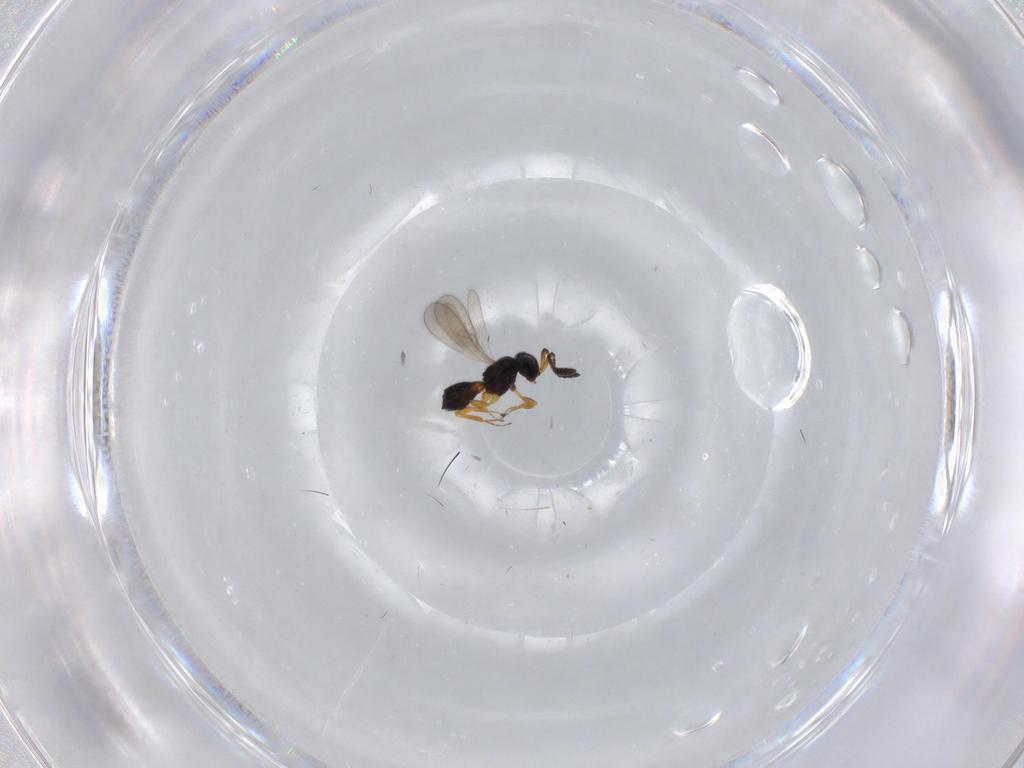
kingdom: Animalia
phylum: Arthropoda
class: Insecta
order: Hymenoptera
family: Scelionidae
